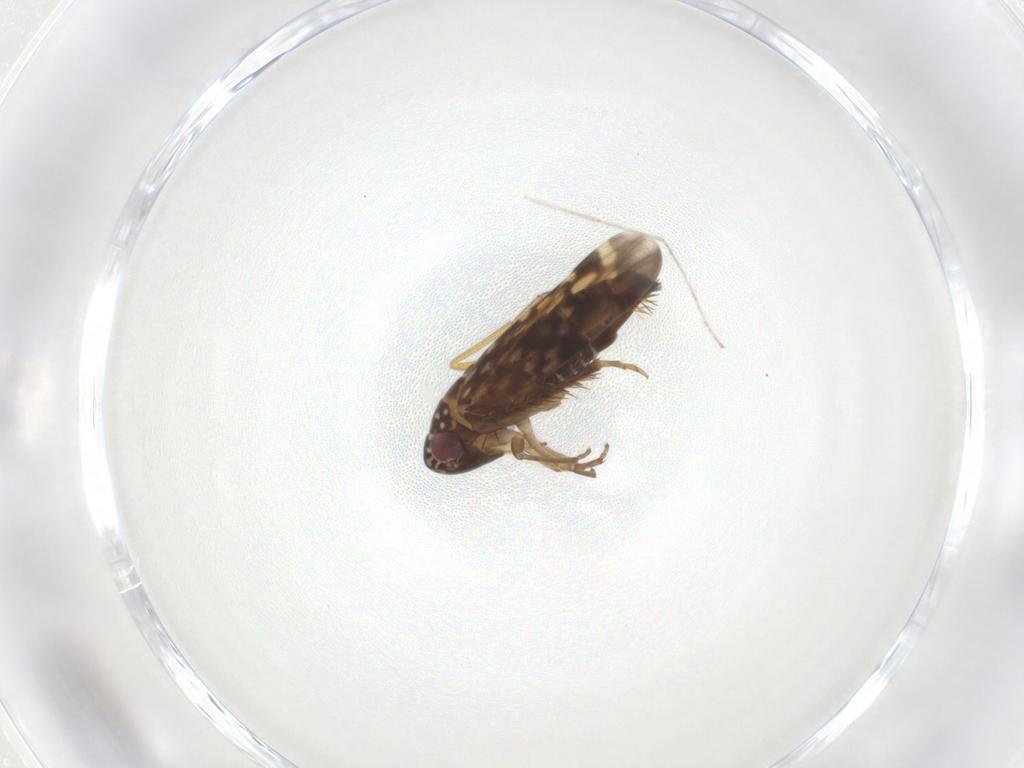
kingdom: Animalia
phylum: Arthropoda
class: Insecta
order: Hemiptera
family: Cicadellidae
